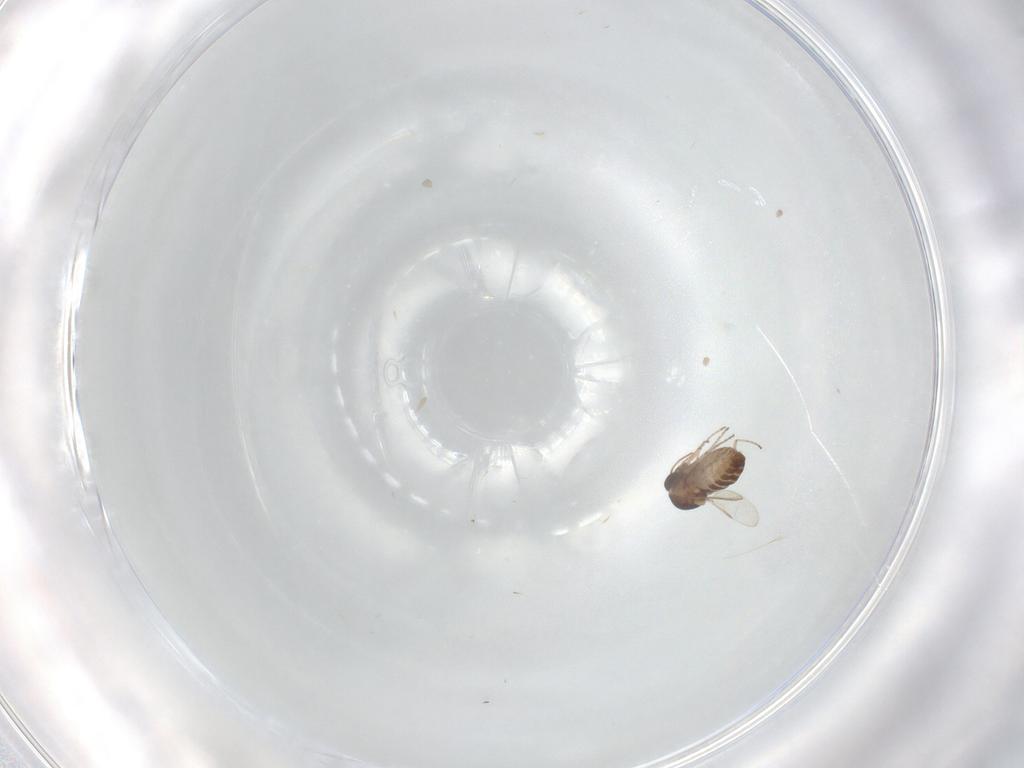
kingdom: Animalia
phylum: Arthropoda
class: Insecta
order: Diptera
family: Ceratopogonidae
